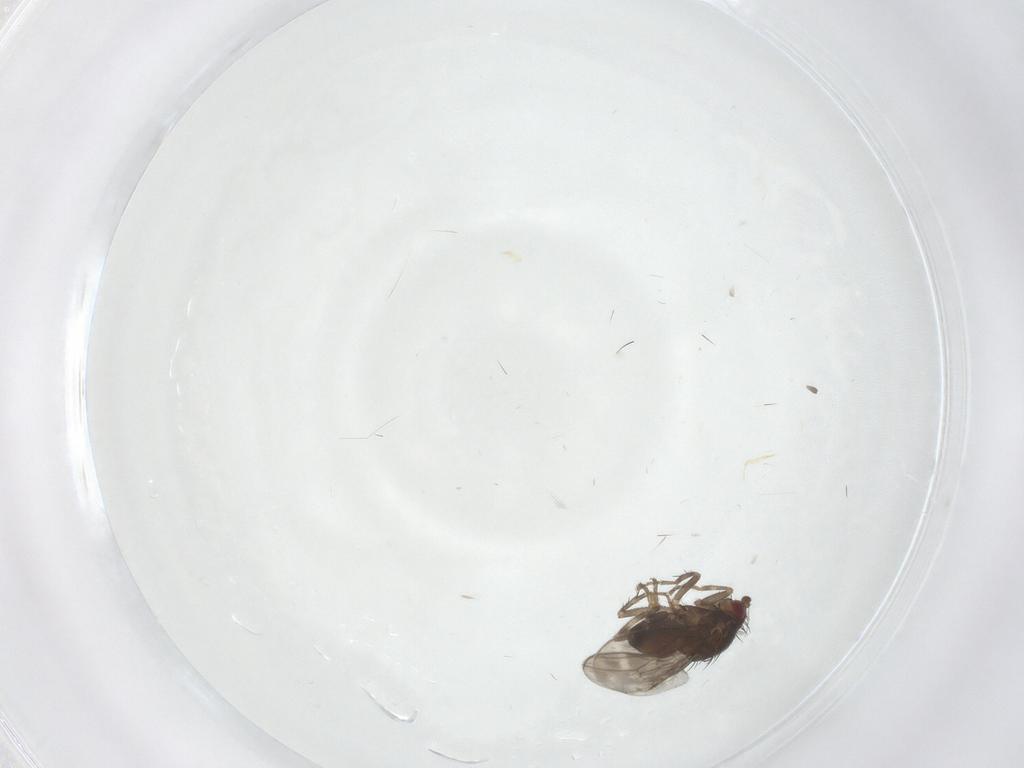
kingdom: Animalia
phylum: Arthropoda
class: Insecta
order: Diptera
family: Sphaeroceridae
